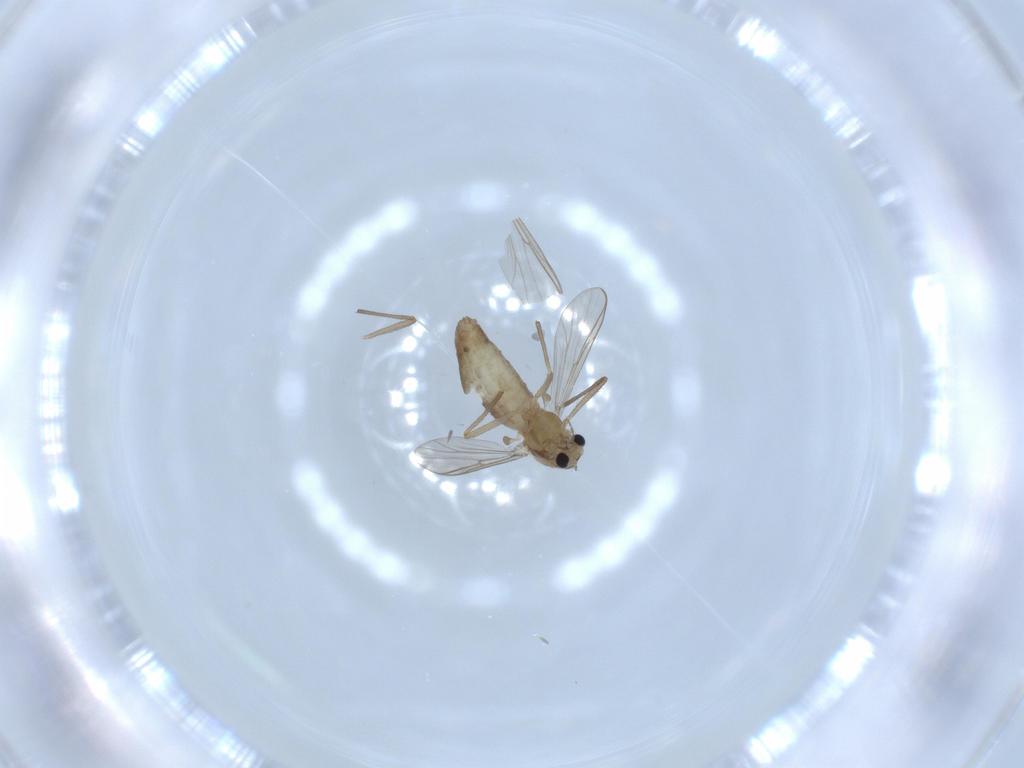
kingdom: Animalia
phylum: Arthropoda
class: Insecta
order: Diptera
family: Chironomidae
